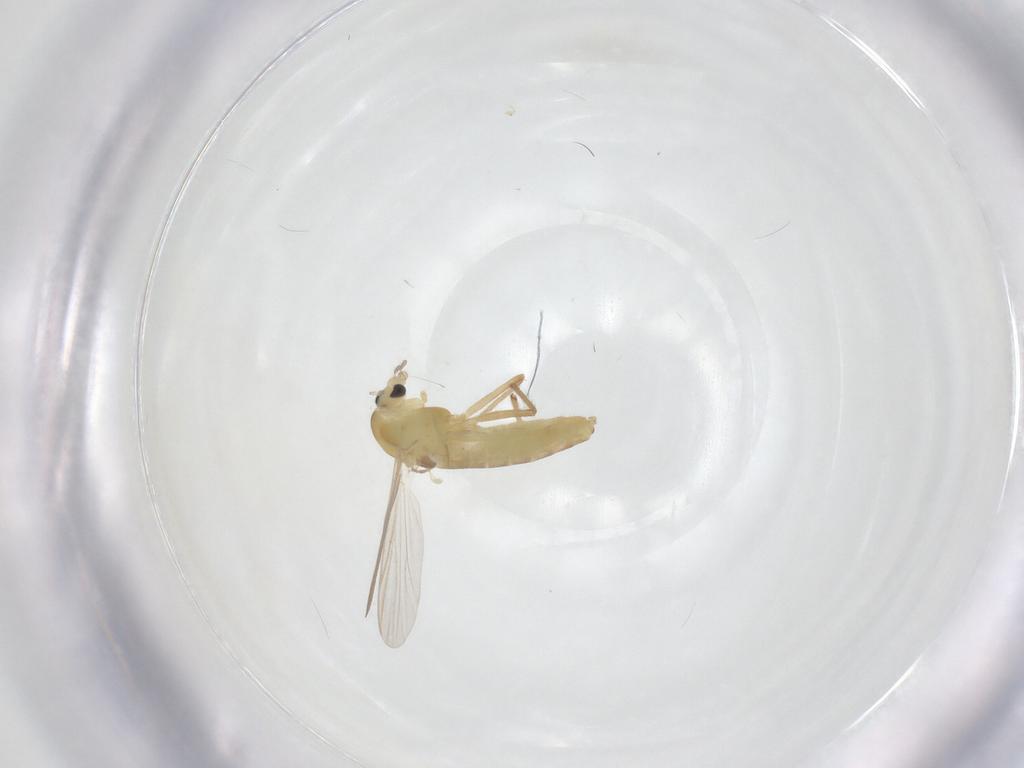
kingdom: Animalia
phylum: Arthropoda
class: Insecta
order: Diptera
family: Chironomidae
